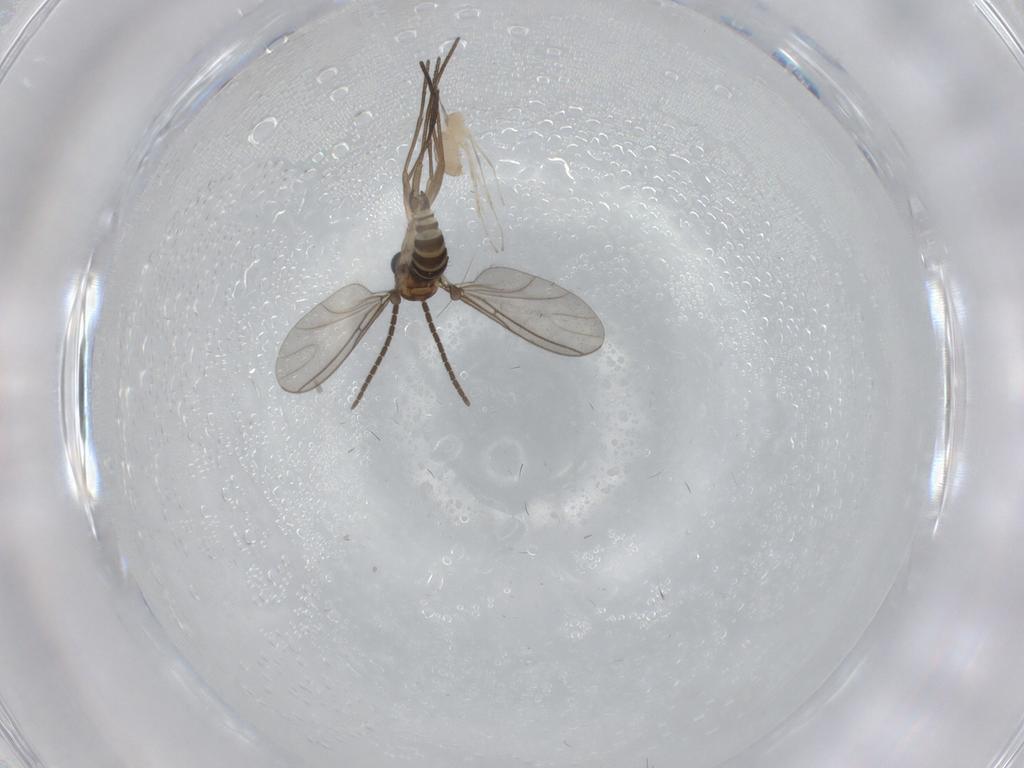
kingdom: Animalia
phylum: Arthropoda
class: Insecta
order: Diptera
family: Sciaridae
